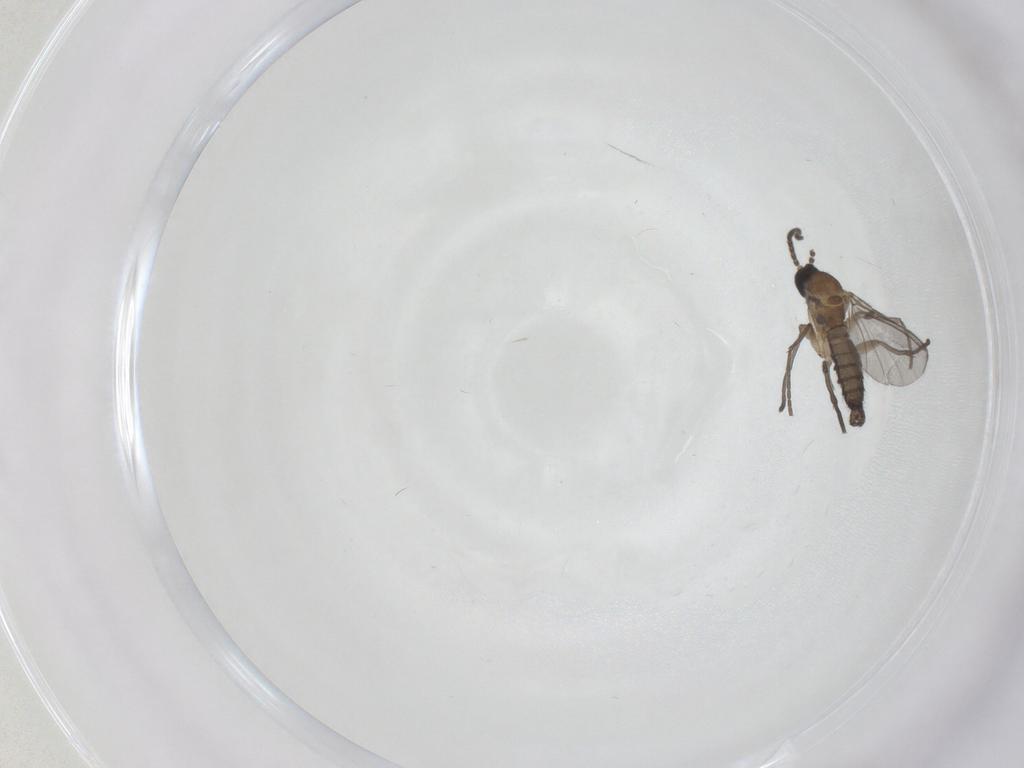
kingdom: Animalia
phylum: Arthropoda
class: Insecta
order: Diptera
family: Sciaridae
